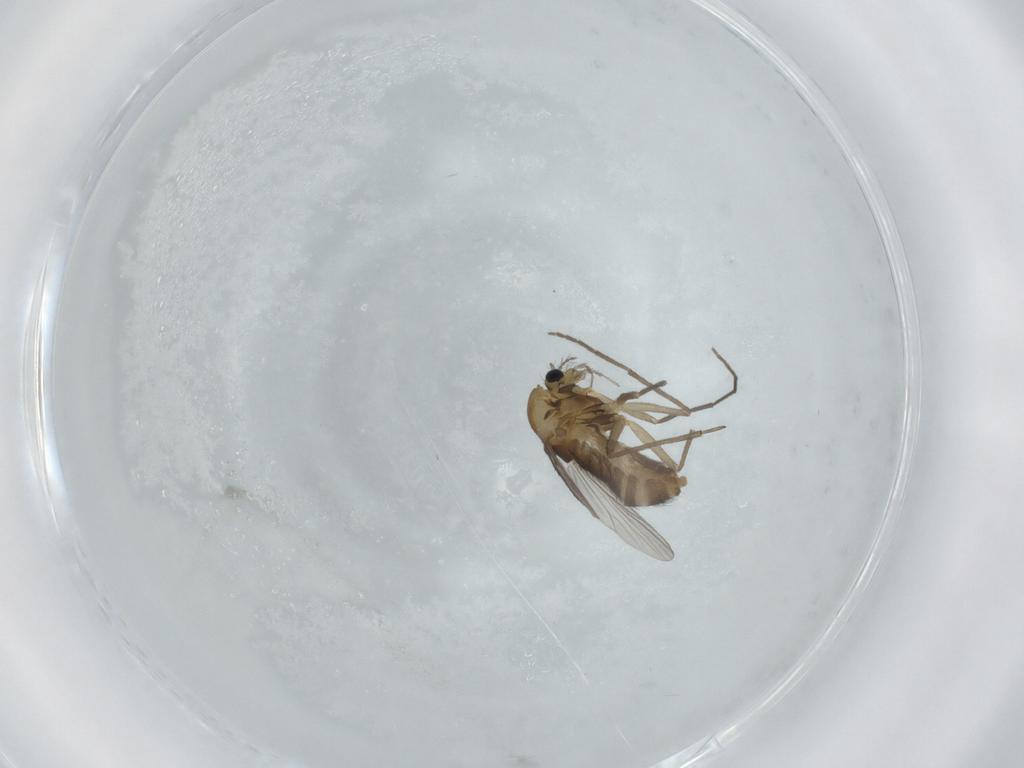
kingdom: Animalia
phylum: Arthropoda
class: Insecta
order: Diptera
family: Chironomidae
